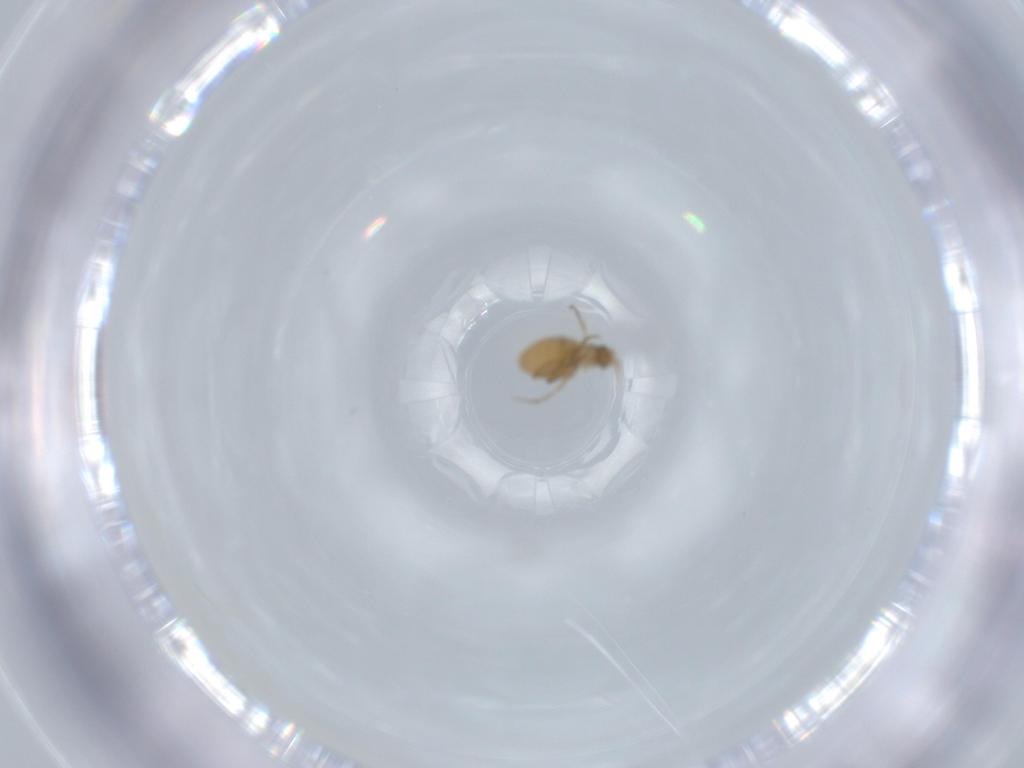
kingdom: Animalia
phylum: Arthropoda
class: Insecta
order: Diptera
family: Phoridae
